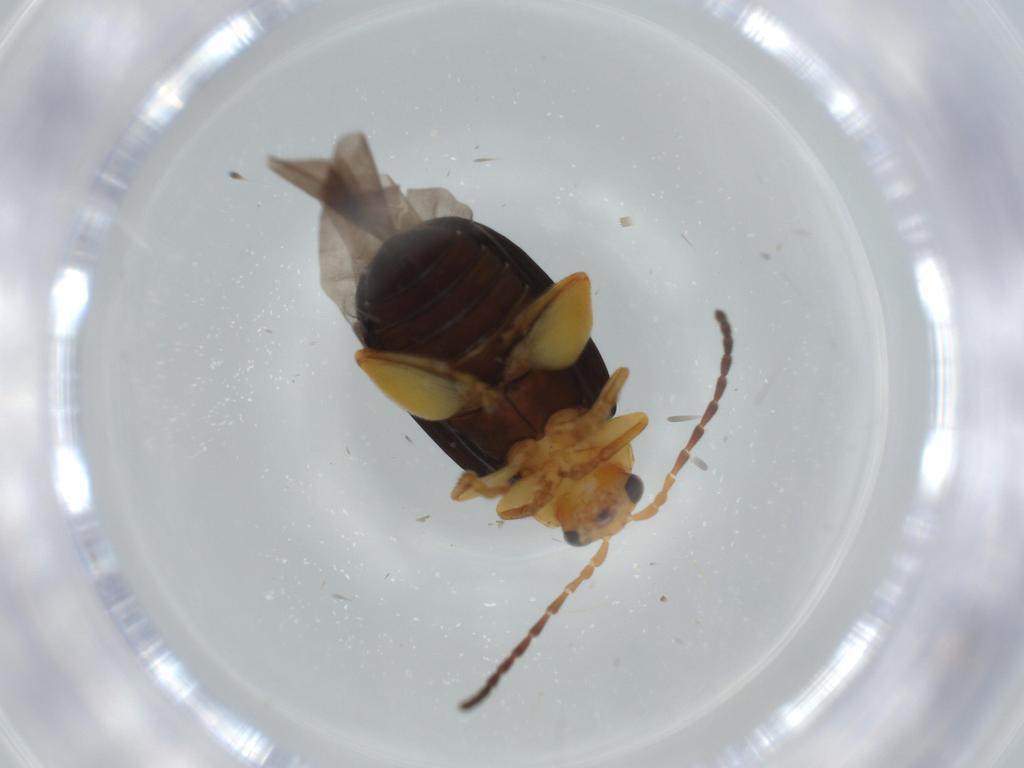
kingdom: Animalia
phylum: Arthropoda
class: Insecta
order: Coleoptera
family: Chrysomelidae
